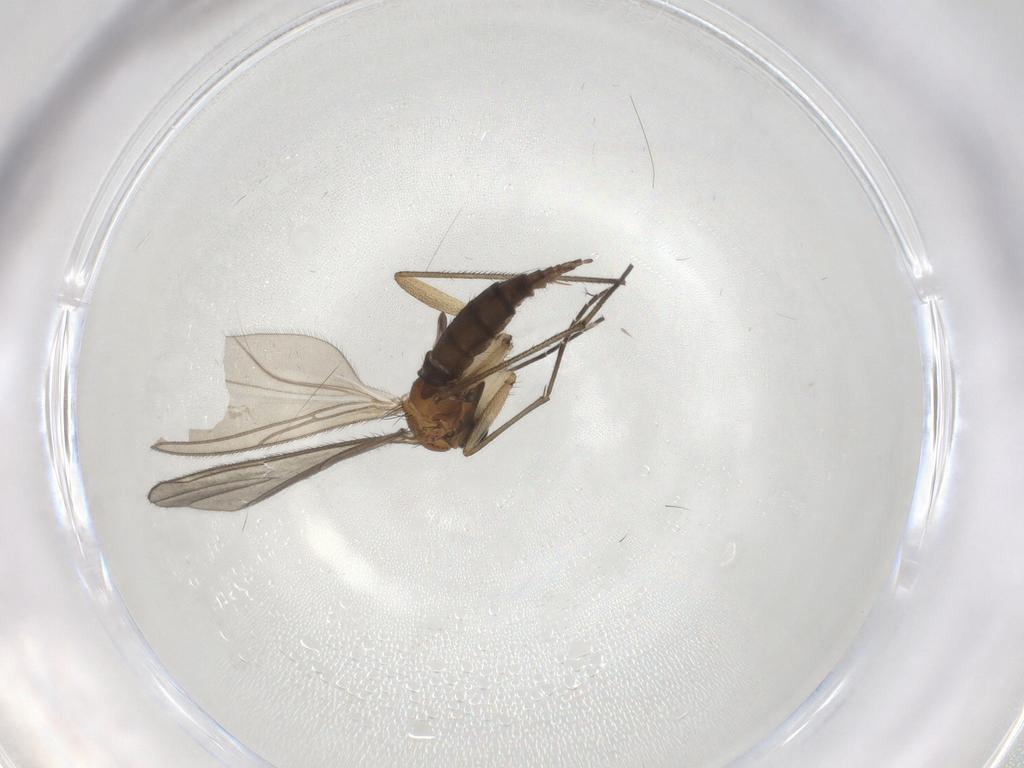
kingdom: Animalia
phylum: Arthropoda
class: Insecta
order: Diptera
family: Sciaridae
